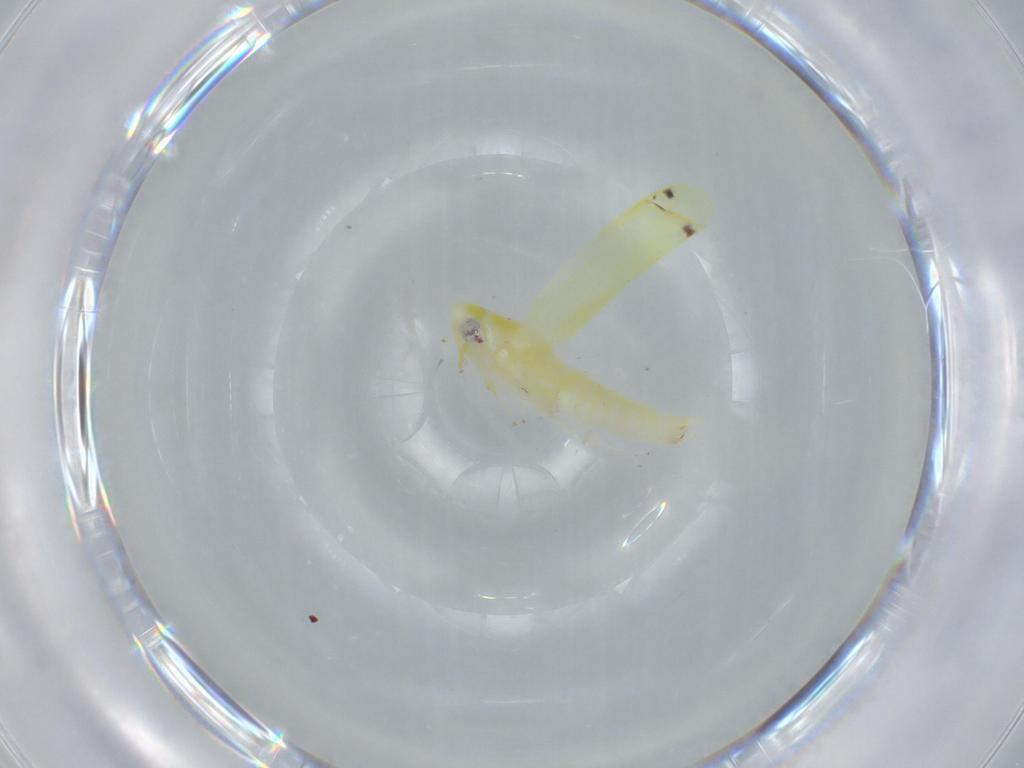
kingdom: Animalia
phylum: Arthropoda
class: Insecta
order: Hemiptera
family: Cicadellidae
